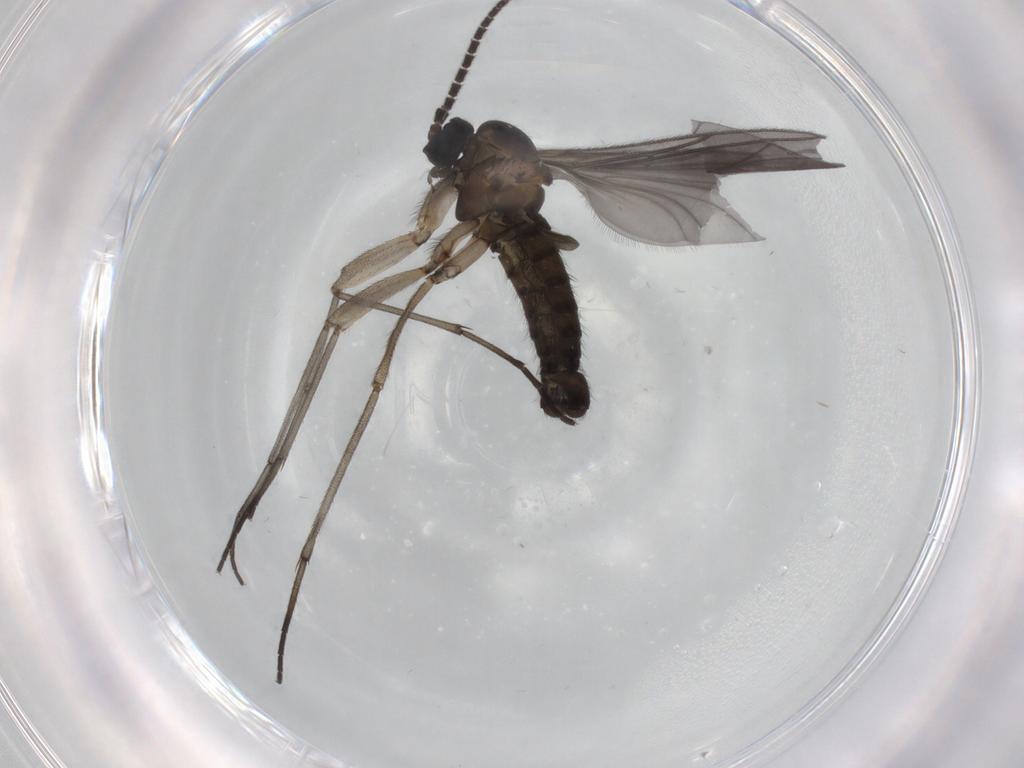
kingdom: Animalia
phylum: Arthropoda
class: Insecta
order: Diptera
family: Sciaridae
